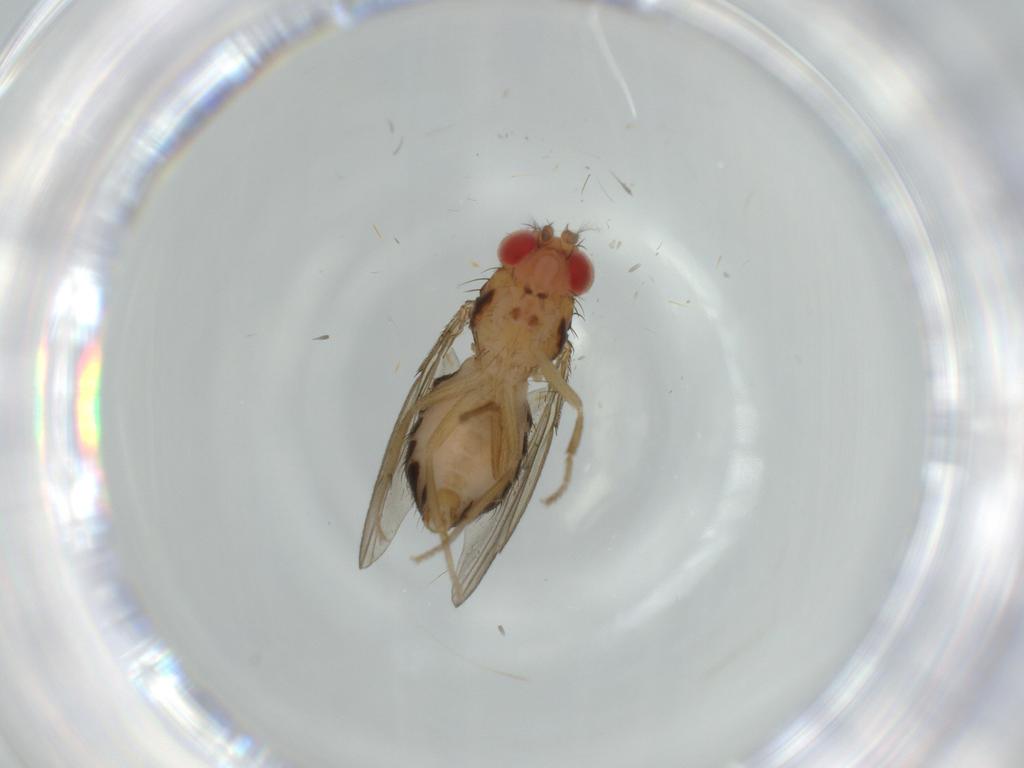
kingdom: Animalia
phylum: Arthropoda
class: Insecta
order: Diptera
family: Drosophilidae
